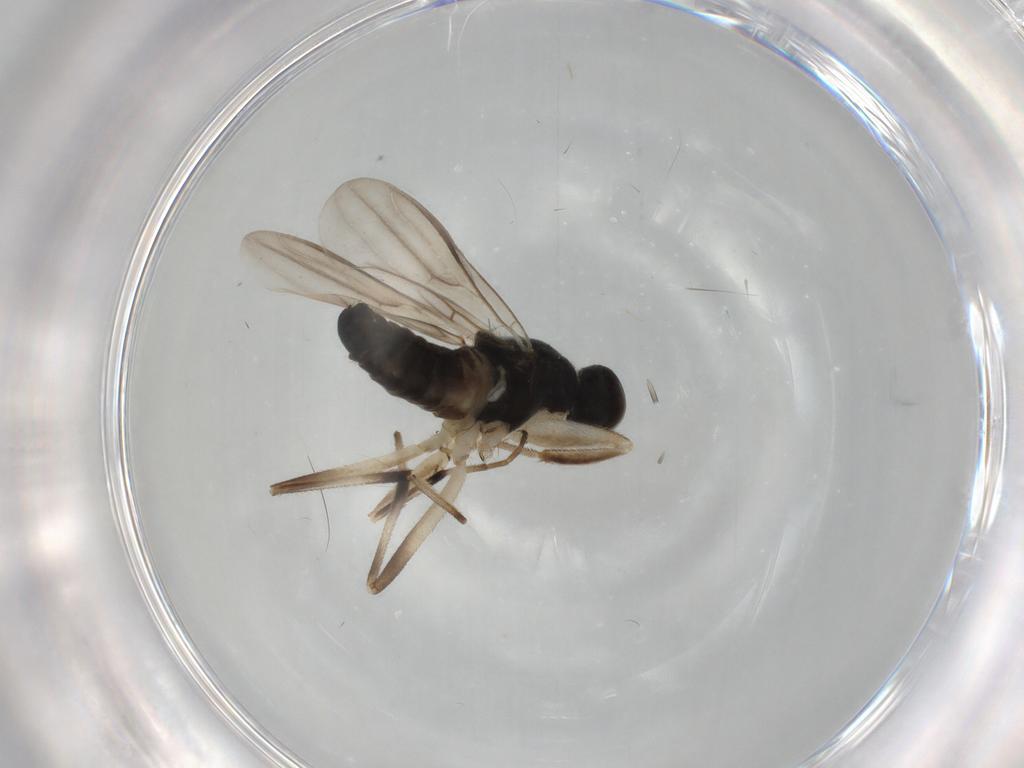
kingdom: Animalia
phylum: Arthropoda
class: Insecta
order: Diptera
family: Hybotidae
